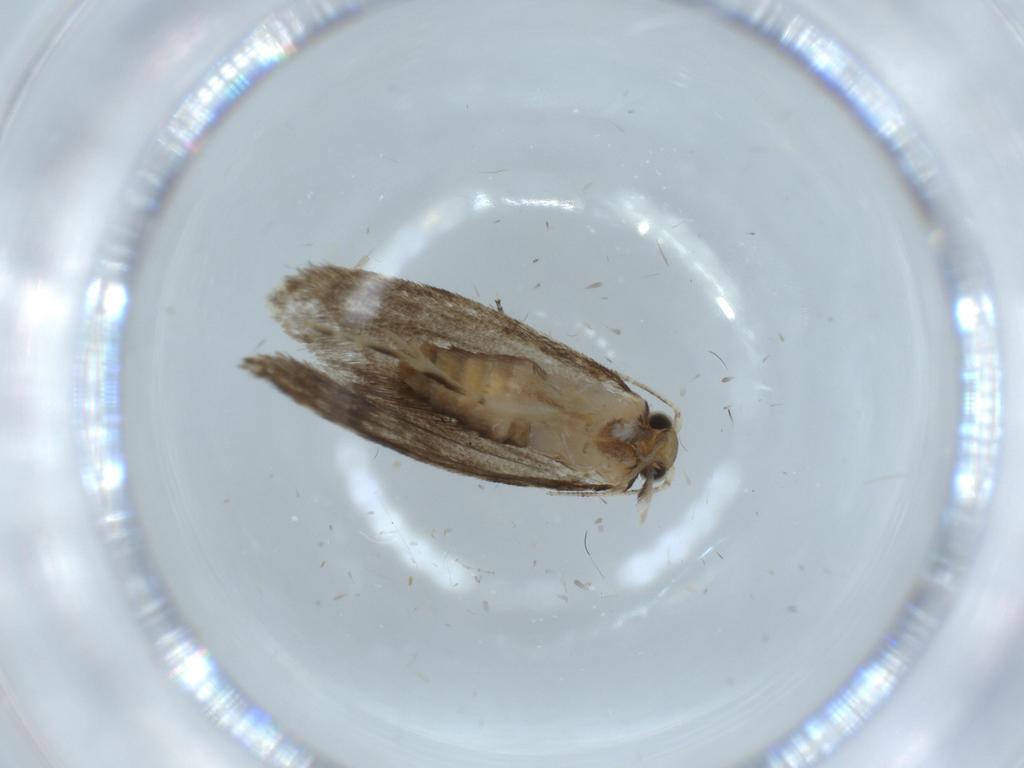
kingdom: Animalia
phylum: Arthropoda
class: Insecta
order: Lepidoptera
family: Tineidae
